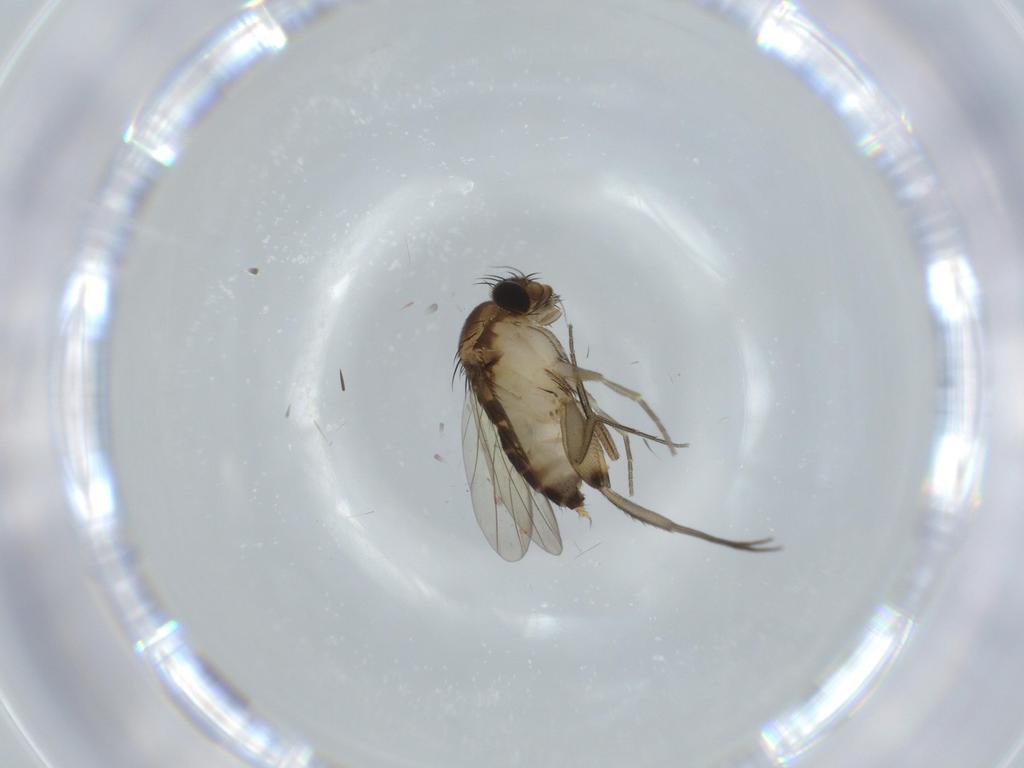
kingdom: Animalia
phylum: Arthropoda
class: Insecta
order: Diptera
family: Phoridae
